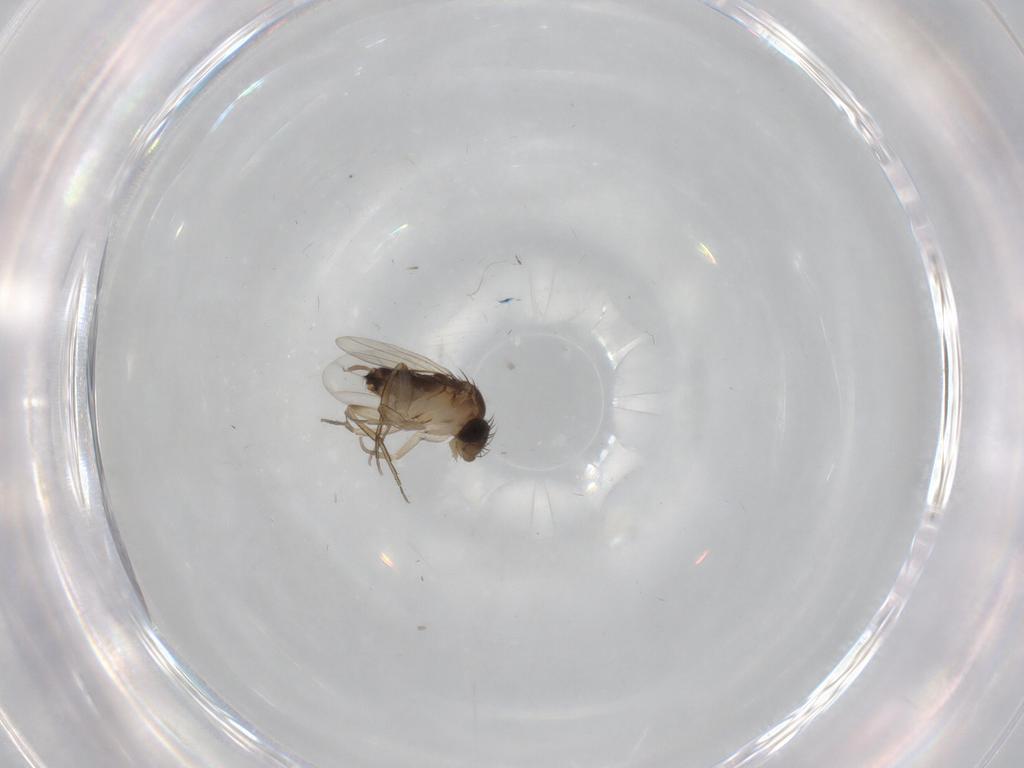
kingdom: Animalia
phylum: Arthropoda
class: Insecta
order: Diptera
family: Psychodidae
